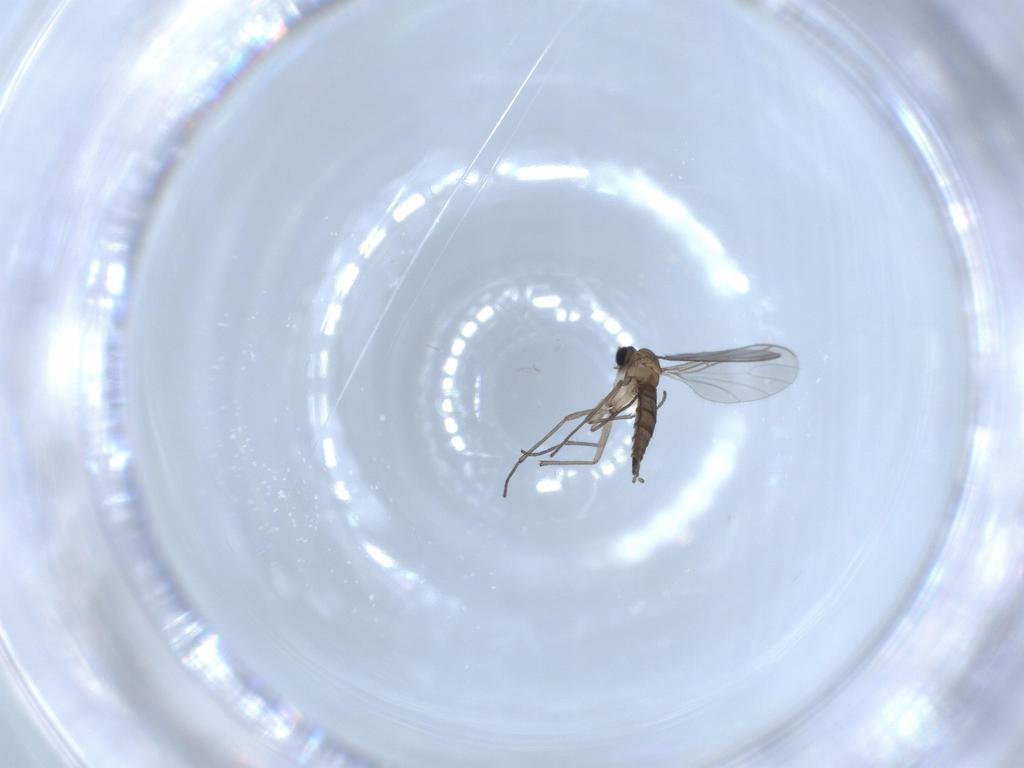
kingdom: Animalia
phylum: Arthropoda
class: Insecta
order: Diptera
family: Sciaridae
